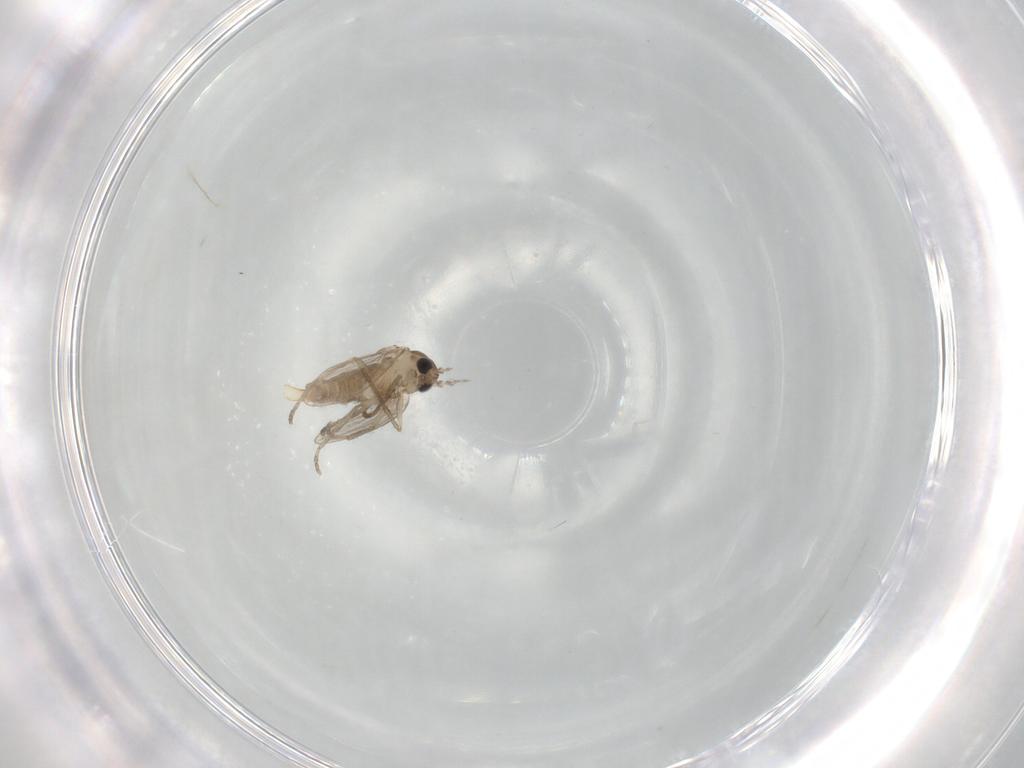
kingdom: Animalia
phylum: Arthropoda
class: Insecta
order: Diptera
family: Psychodidae
